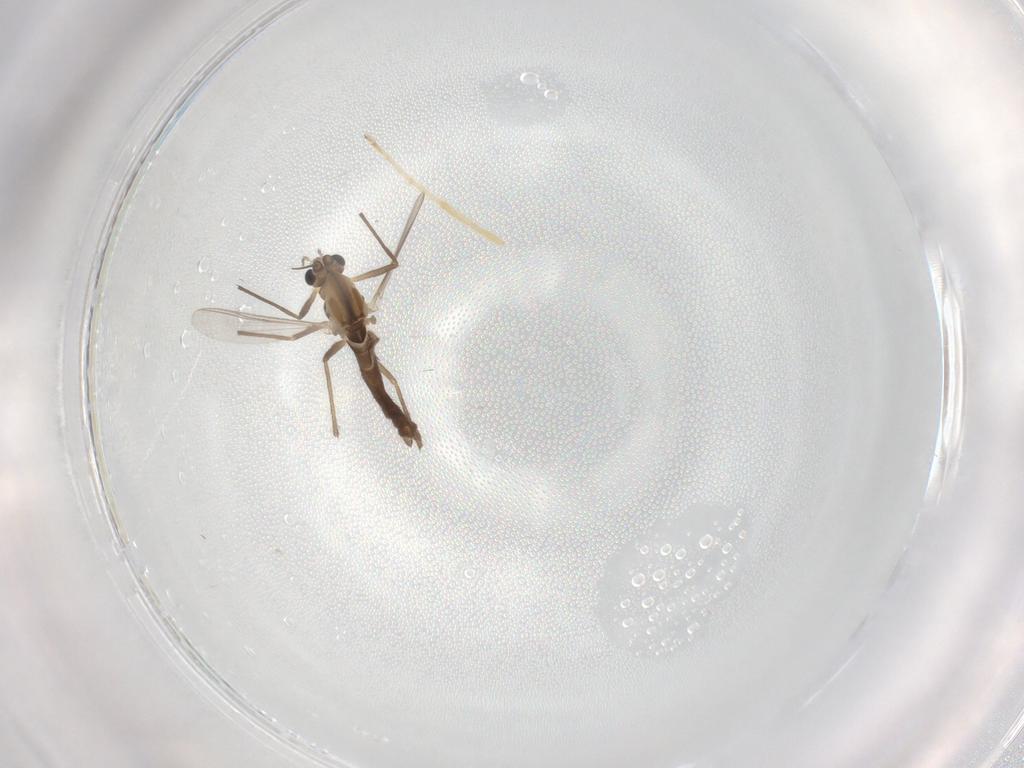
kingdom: Animalia
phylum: Arthropoda
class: Insecta
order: Diptera
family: Chironomidae
